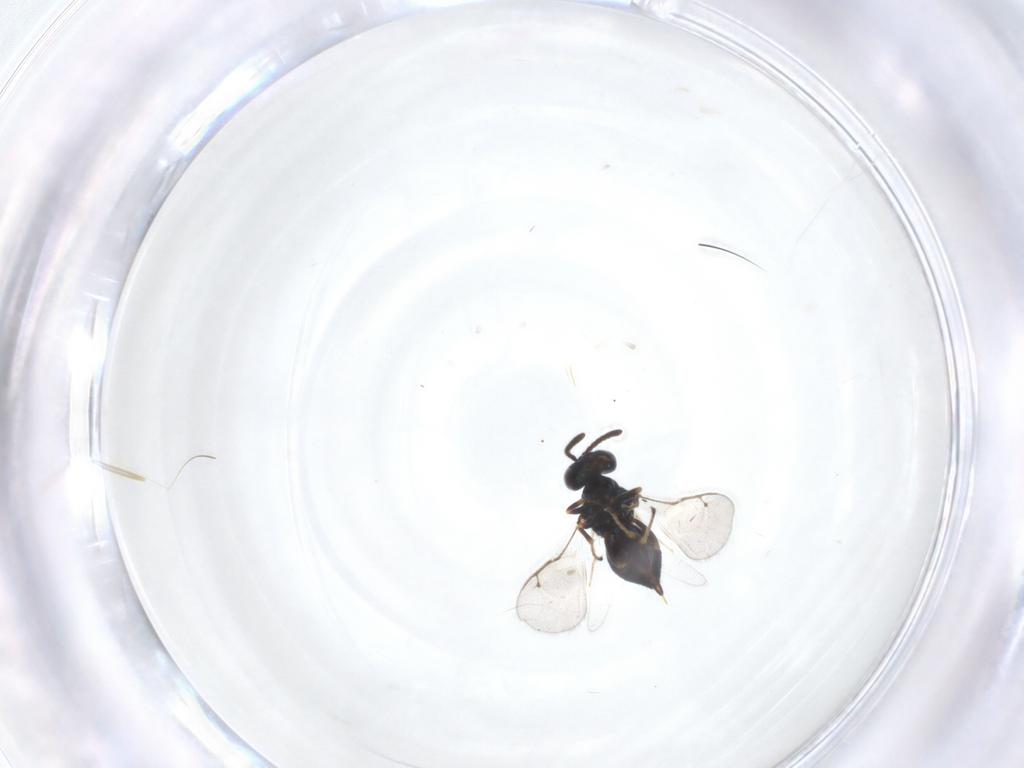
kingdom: Animalia
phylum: Arthropoda
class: Insecta
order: Hymenoptera
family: Pteromalidae
